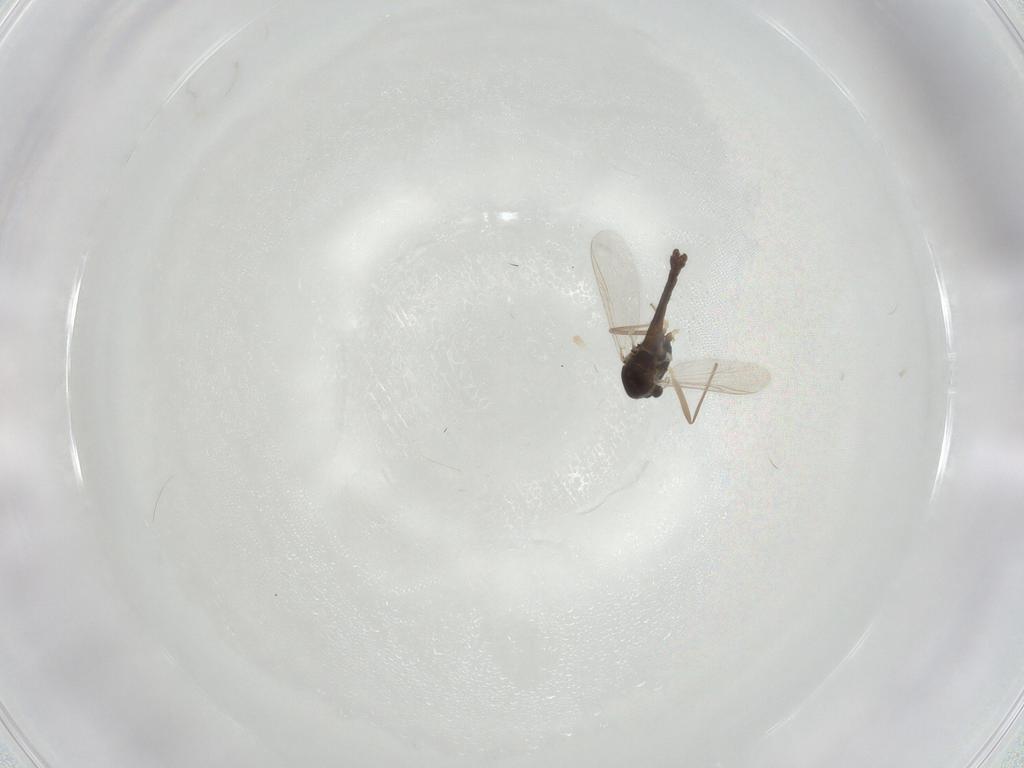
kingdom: Animalia
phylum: Arthropoda
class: Insecta
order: Diptera
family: Chironomidae
